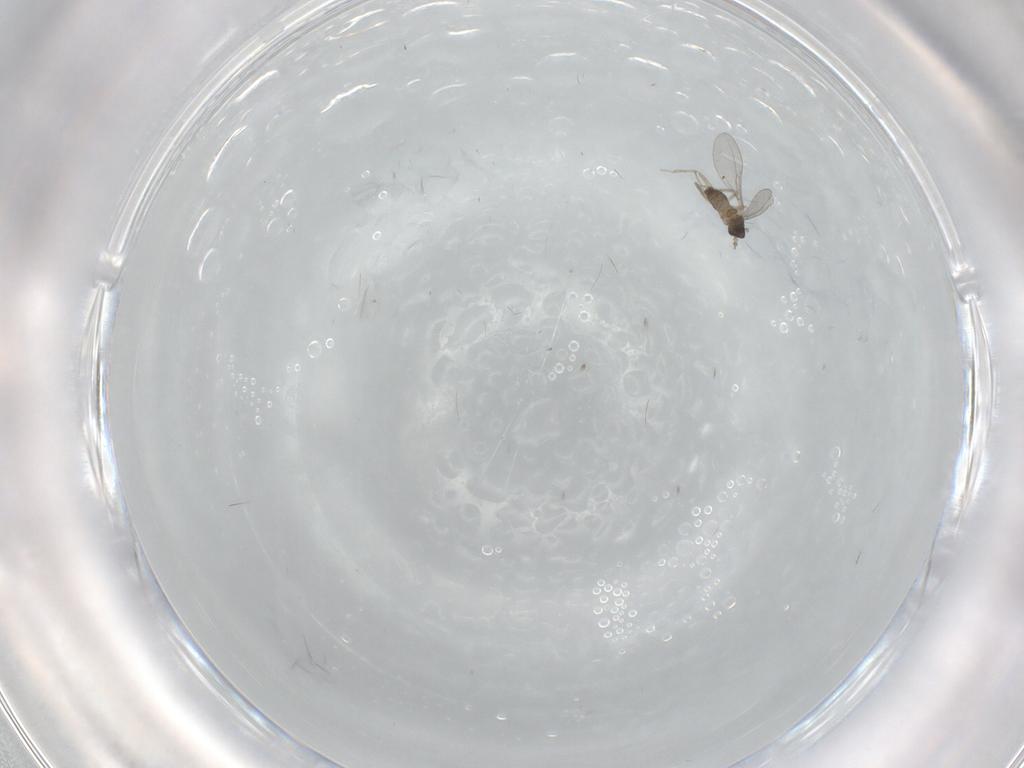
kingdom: Animalia
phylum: Arthropoda
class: Insecta
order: Diptera
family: Cecidomyiidae
